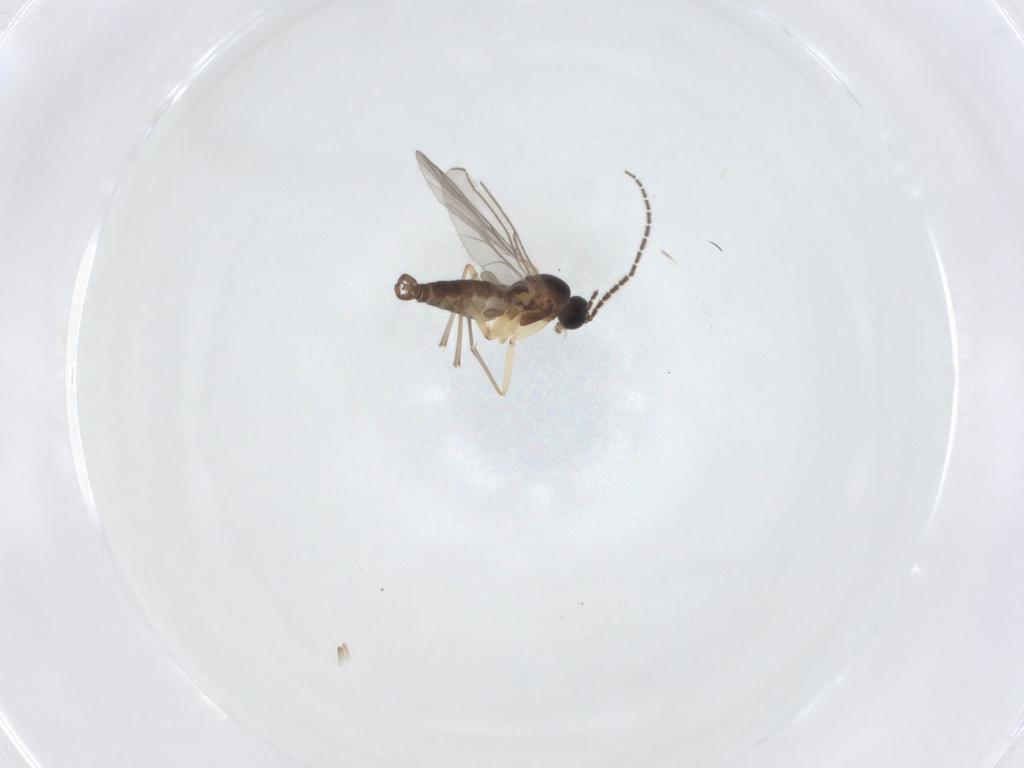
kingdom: Animalia
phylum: Arthropoda
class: Insecta
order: Diptera
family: Sciaridae
